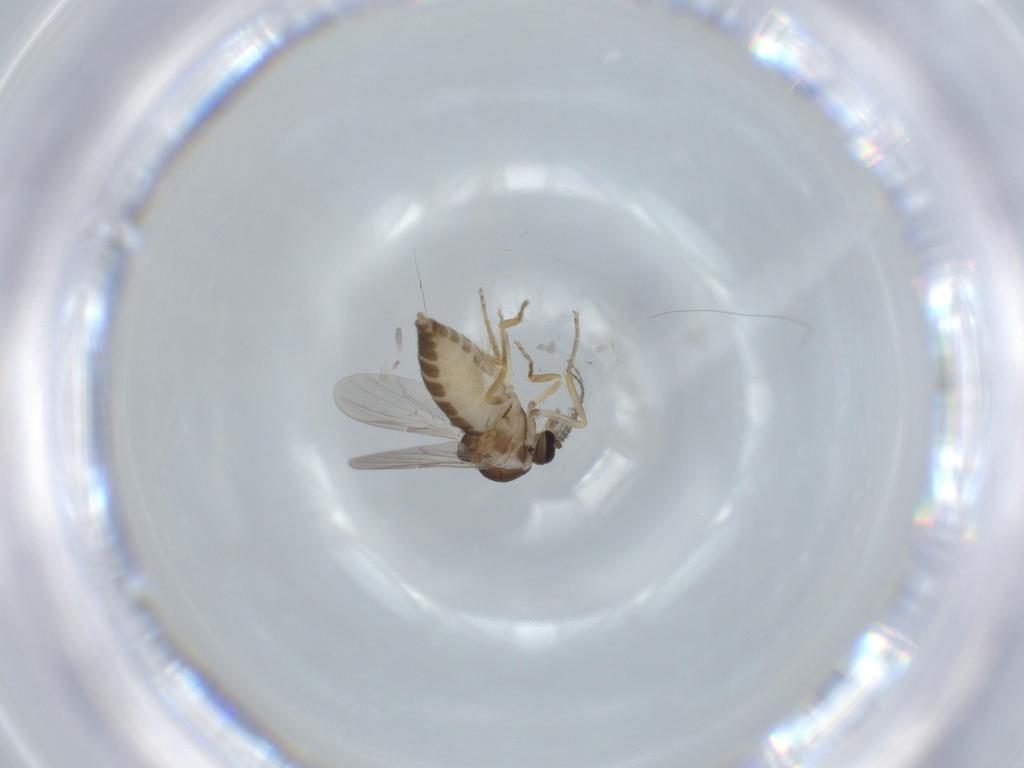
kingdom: Animalia
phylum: Arthropoda
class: Insecta
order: Diptera
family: Ceratopogonidae
